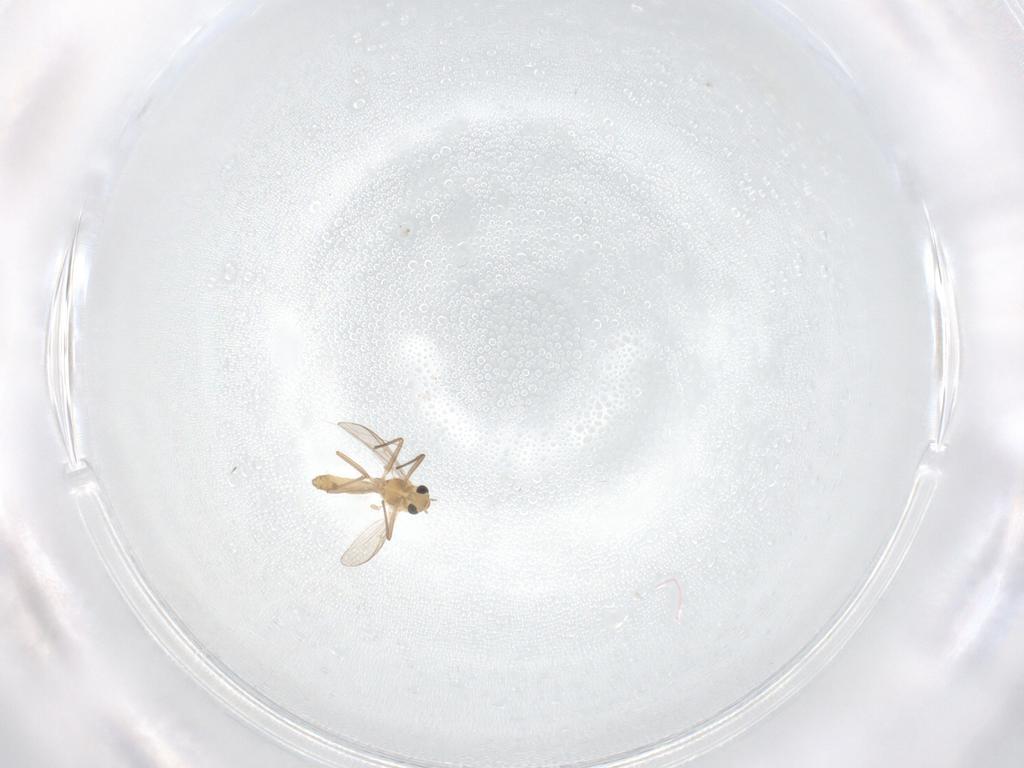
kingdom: Animalia
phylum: Arthropoda
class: Insecta
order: Diptera
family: Chironomidae
